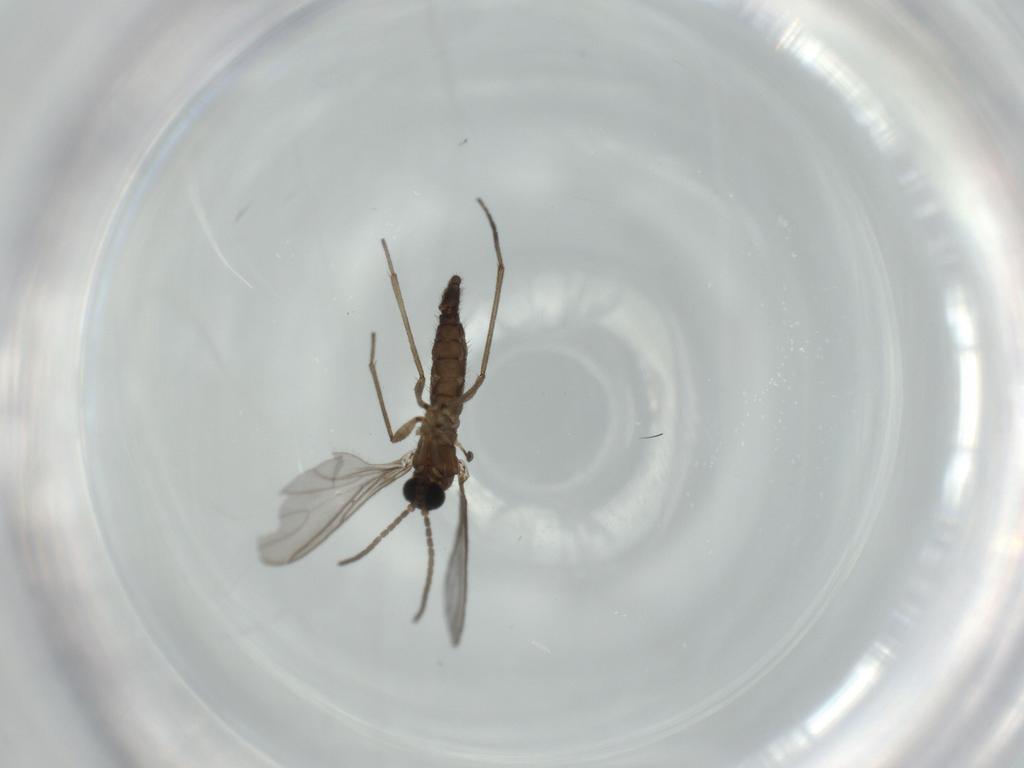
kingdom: Animalia
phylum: Arthropoda
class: Insecta
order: Diptera
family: Sciaridae
